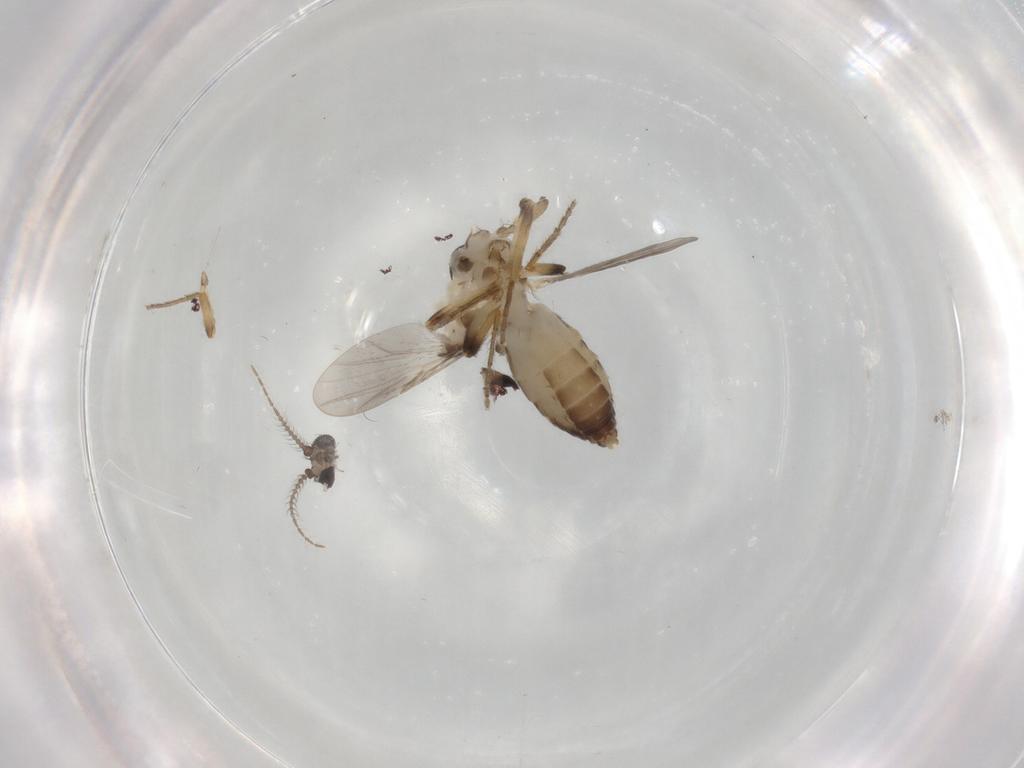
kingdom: Animalia
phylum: Arthropoda
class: Insecta
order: Diptera
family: Ceratopogonidae
